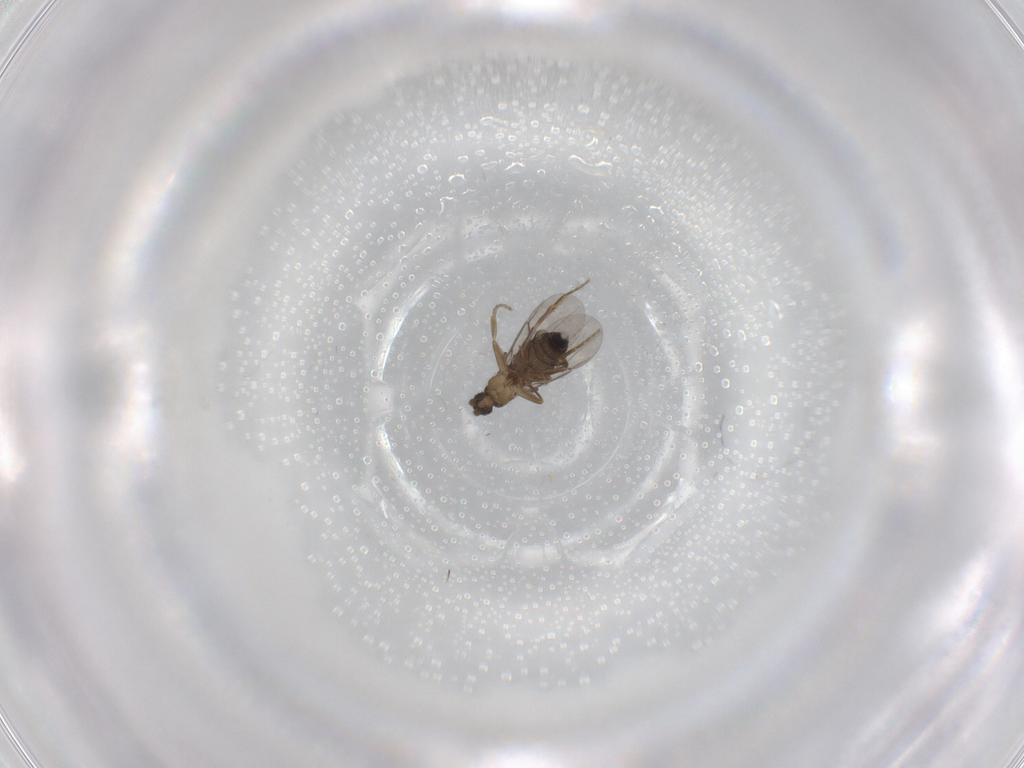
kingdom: Animalia
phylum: Arthropoda
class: Insecta
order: Diptera
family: Phoridae
